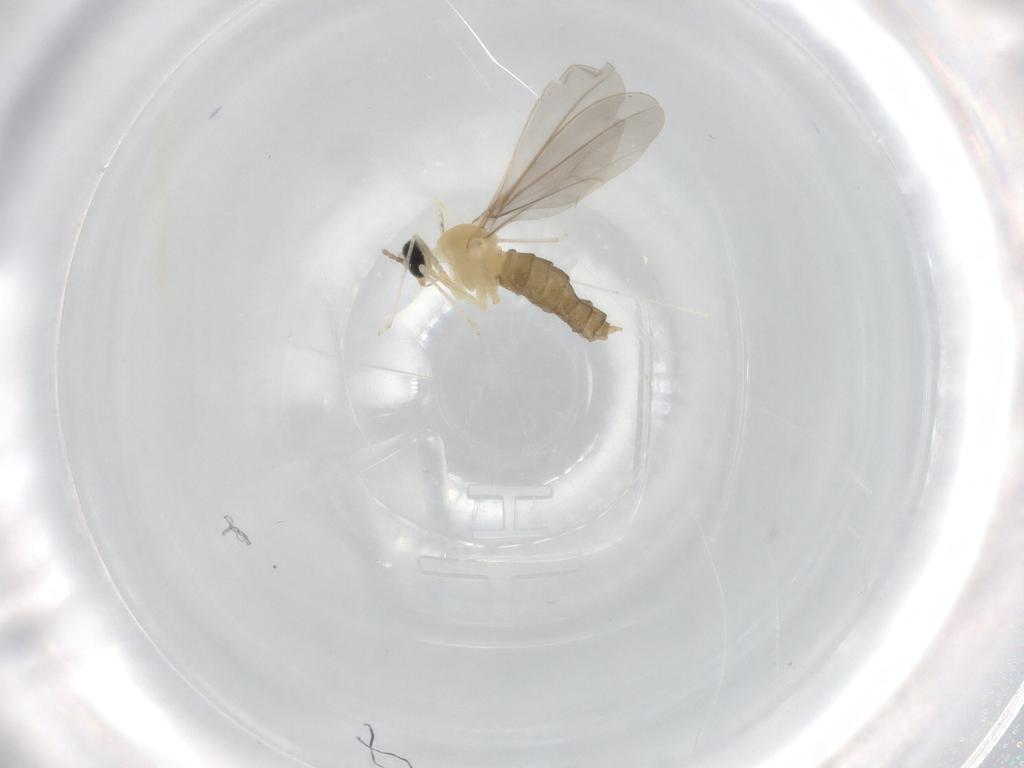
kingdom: Animalia
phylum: Arthropoda
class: Insecta
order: Diptera
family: Cecidomyiidae
